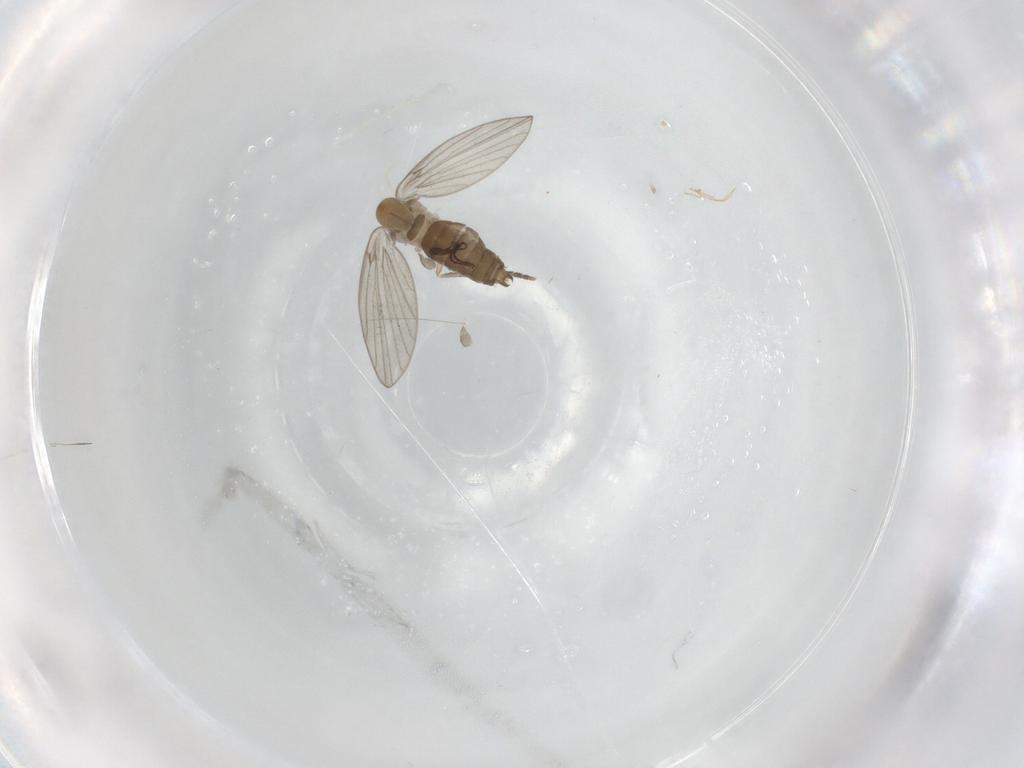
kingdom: Animalia
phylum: Arthropoda
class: Insecta
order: Diptera
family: Psychodidae
